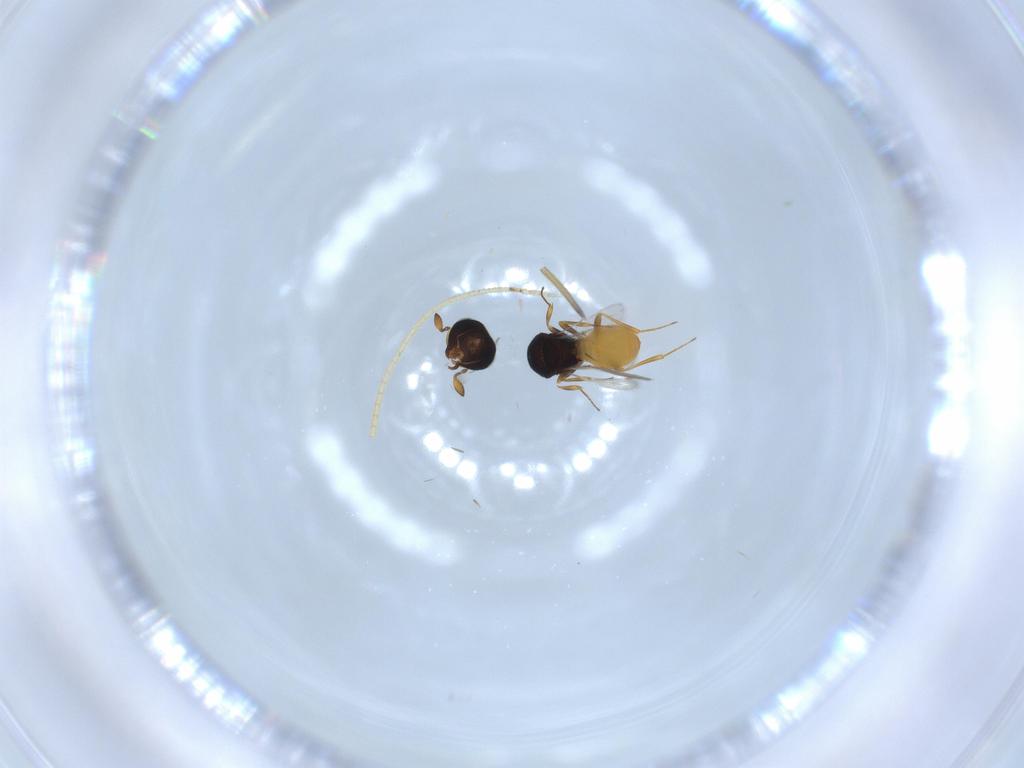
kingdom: Animalia
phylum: Arthropoda
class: Insecta
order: Hymenoptera
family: Scelionidae
